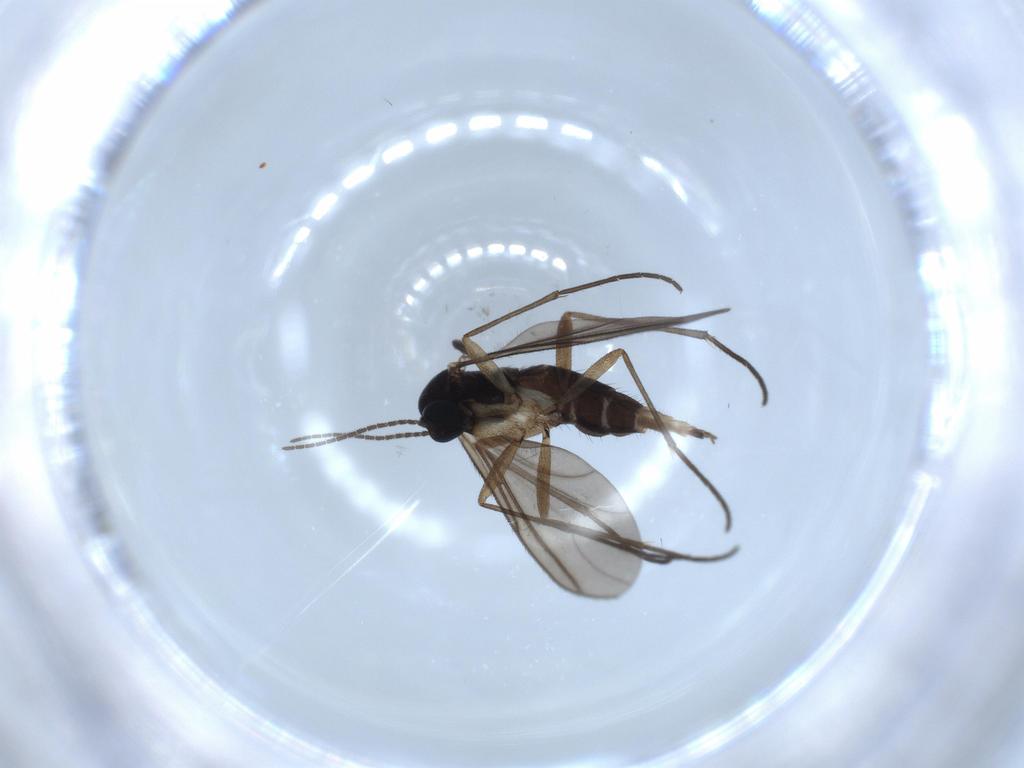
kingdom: Animalia
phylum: Arthropoda
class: Insecta
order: Diptera
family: Sciaridae
